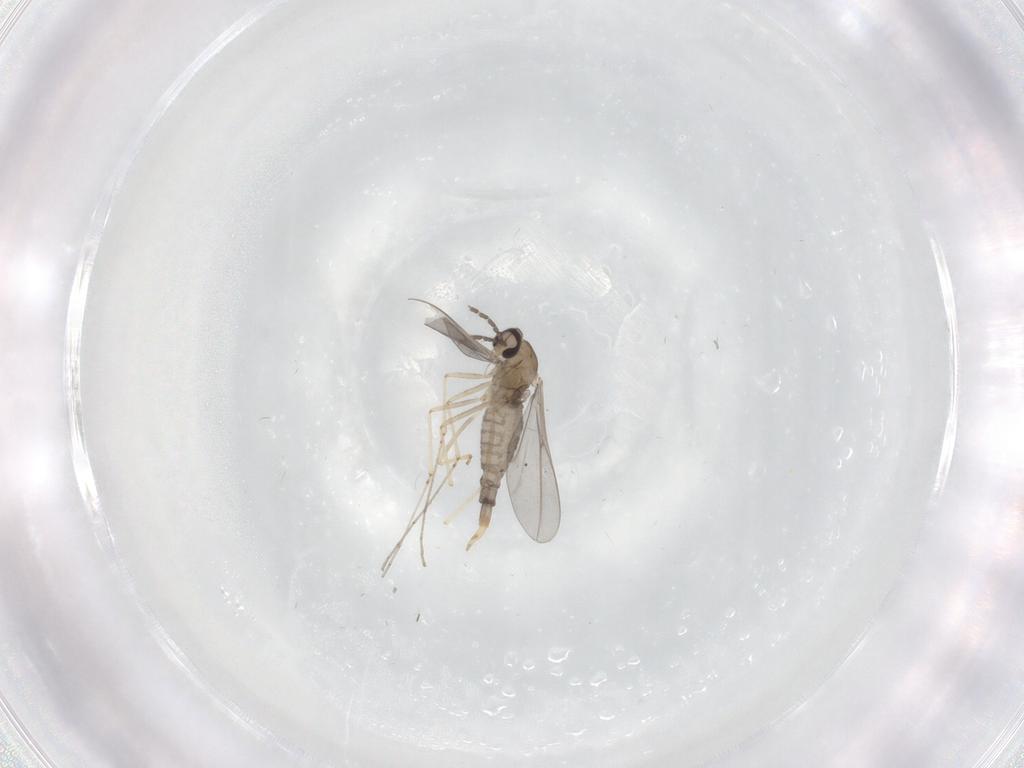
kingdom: Animalia
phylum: Arthropoda
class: Insecta
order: Diptera
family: Cecidomyiidae
